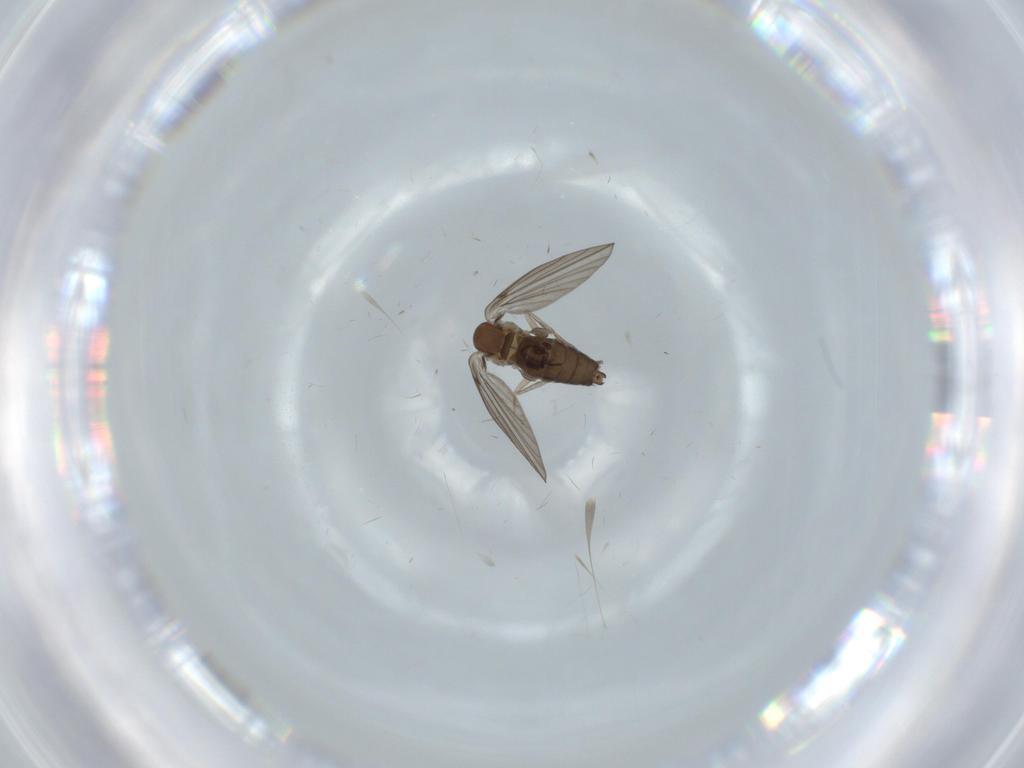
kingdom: Animalia
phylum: Arthropoda
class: Insecta
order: Diptera
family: Psychodidae
